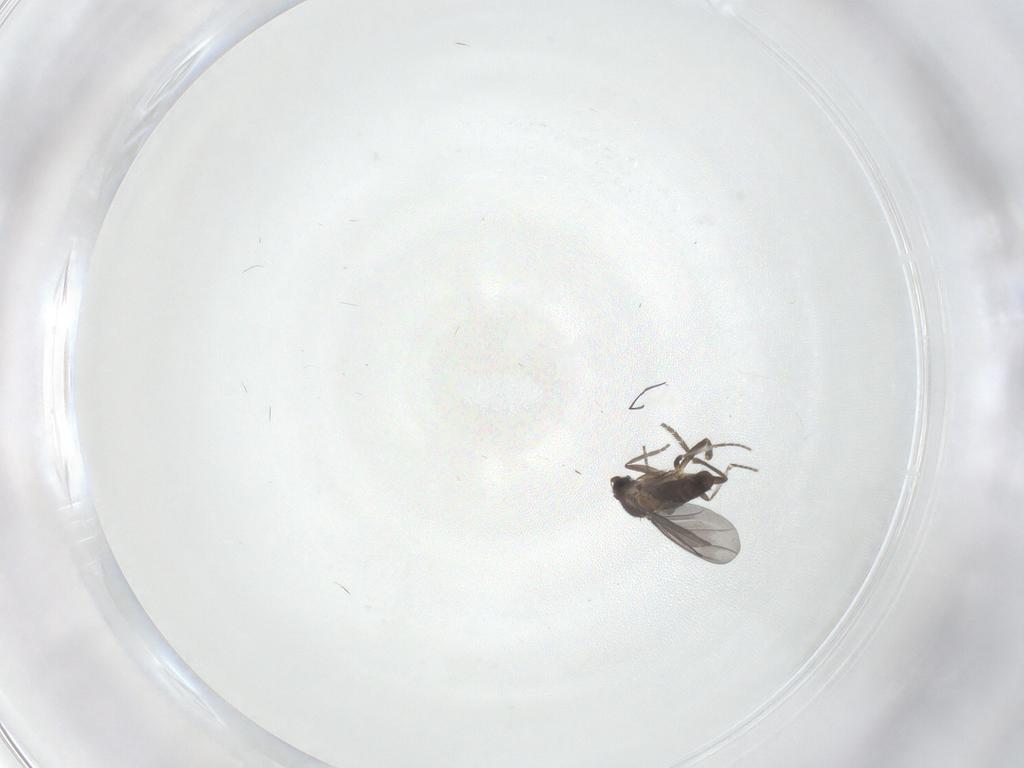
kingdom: Animalia
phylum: Arthropoda
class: Insecta
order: Diptera
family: Phoridae
